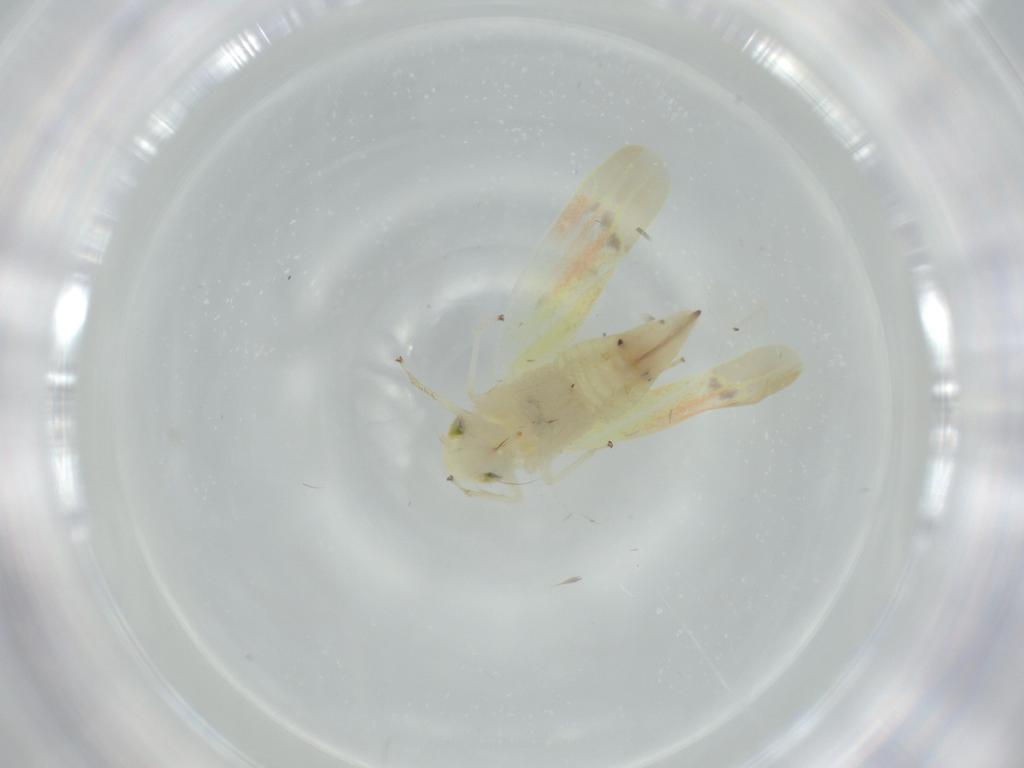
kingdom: Animalia
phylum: Arthropoda
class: Insecta
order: Hemiptera
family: Cicadellidae
